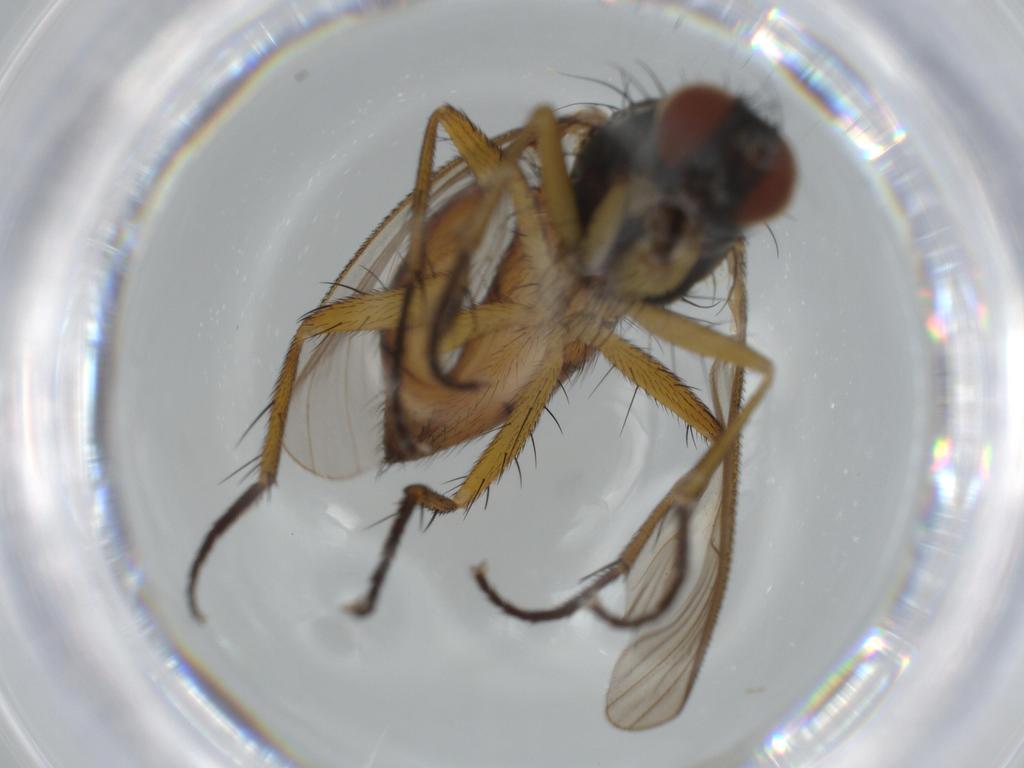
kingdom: Animalia
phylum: Arthropoda
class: Insecta
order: Diptera
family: Muscidae
